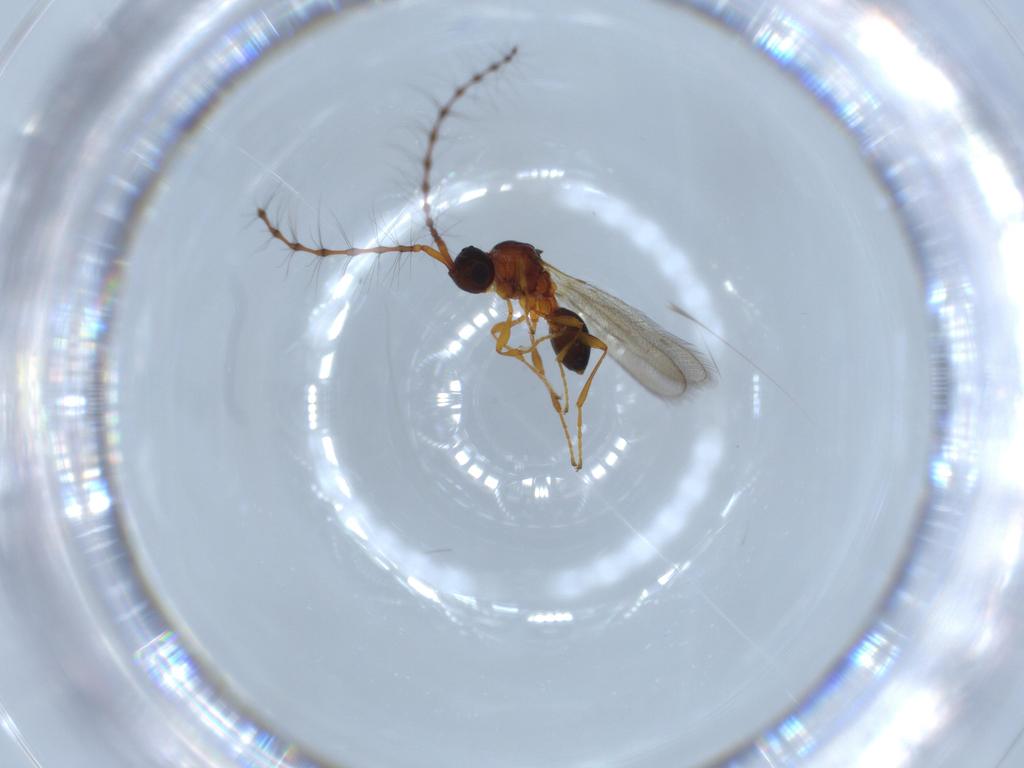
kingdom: Animalia
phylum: Arthropoda
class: Insecta
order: Hymenoptera
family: Diapriidae
